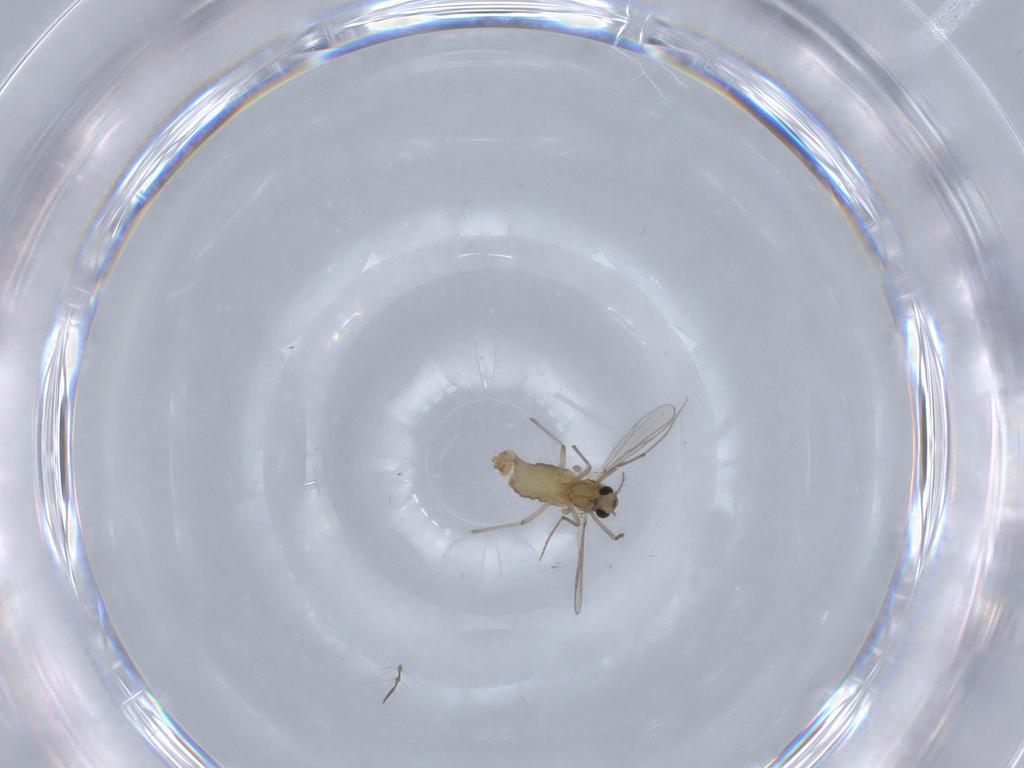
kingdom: Animalia
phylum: Arthropoda
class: Insecta
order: Diptera
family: Chironomidae
